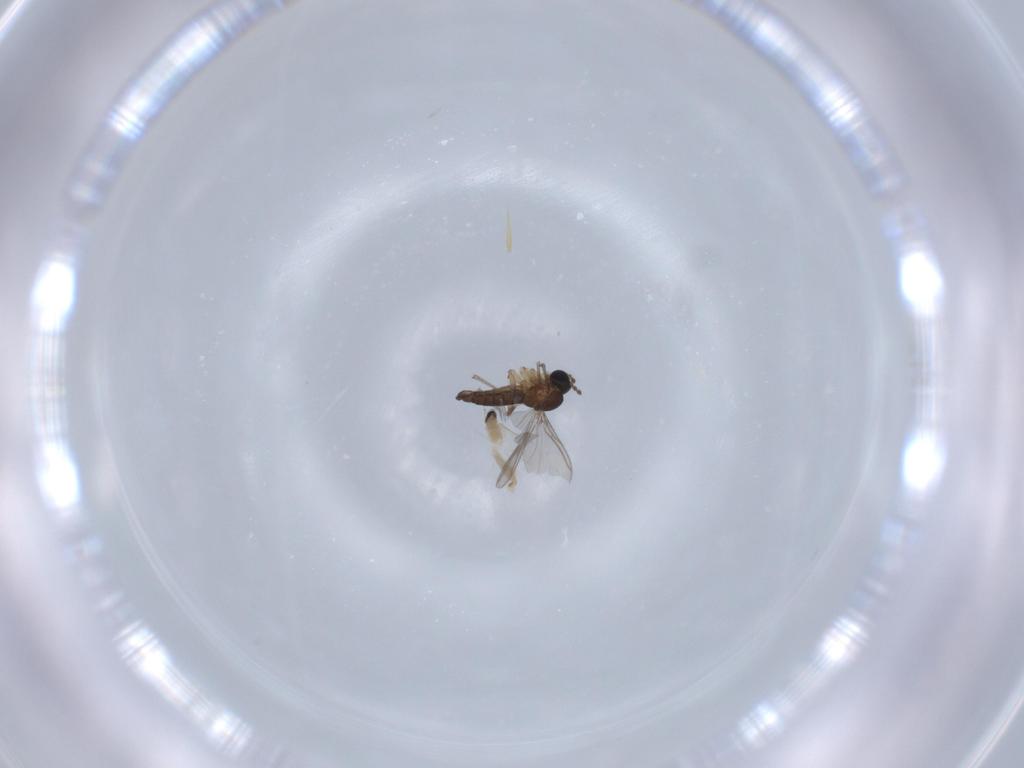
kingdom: Animalia
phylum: Arthropoda
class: Insecta
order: Diptera
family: Sciaridae
